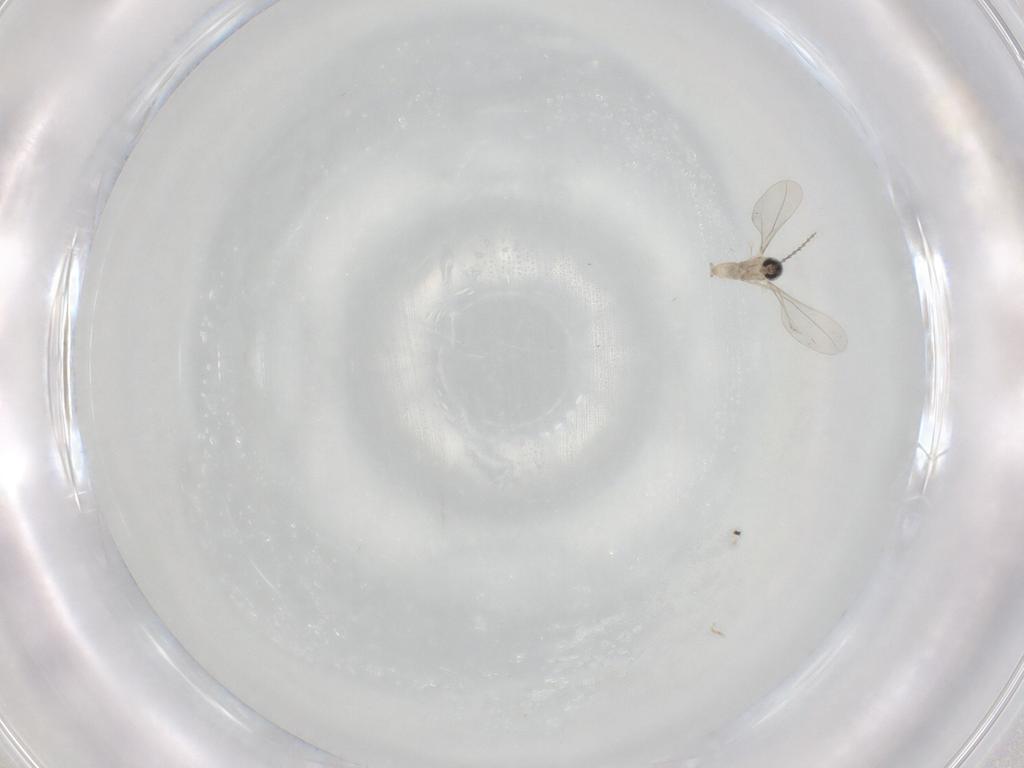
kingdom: Animalia
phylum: Arthropoda
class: Insecta
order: Diptera
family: Cecidomyiidae
